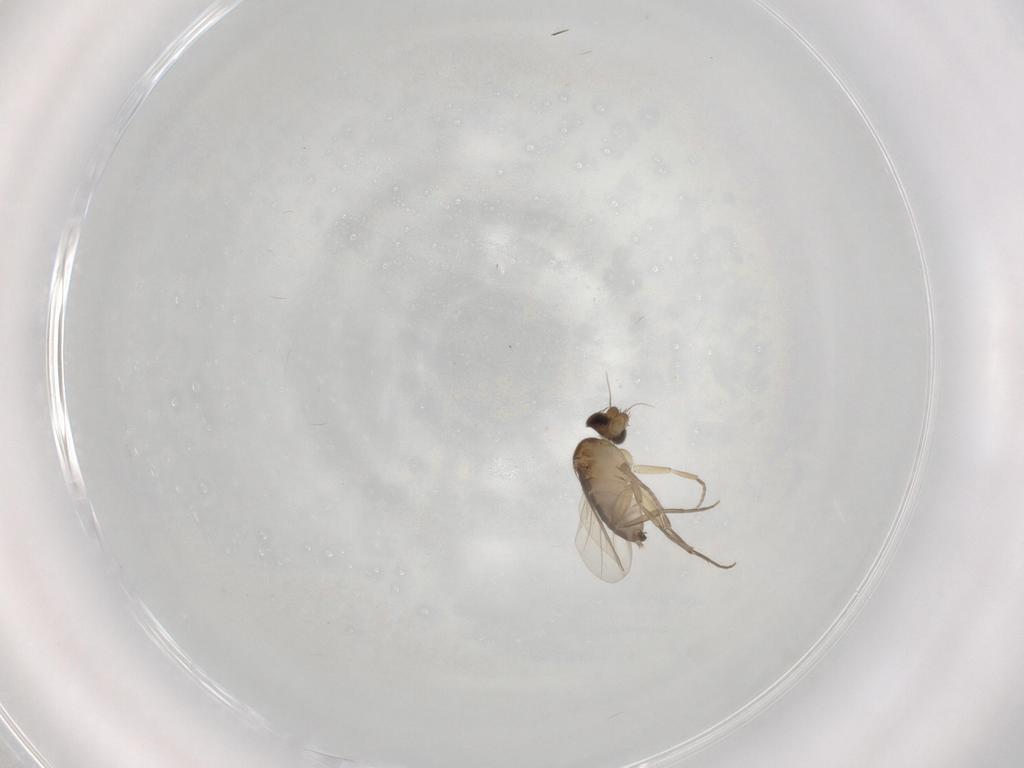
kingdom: Animalia
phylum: Arthropoda
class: Insecta
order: Diptera
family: Phoridae
